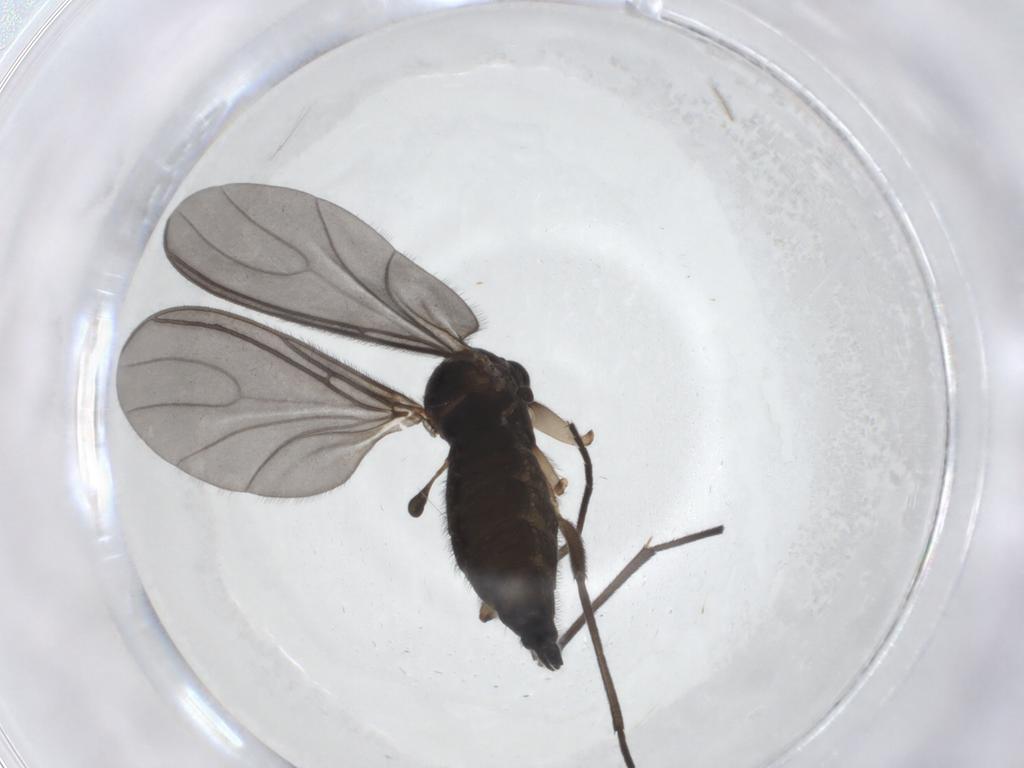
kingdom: Animalia
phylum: Arthropoda
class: Insecta
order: Diptera
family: Sciaridae
